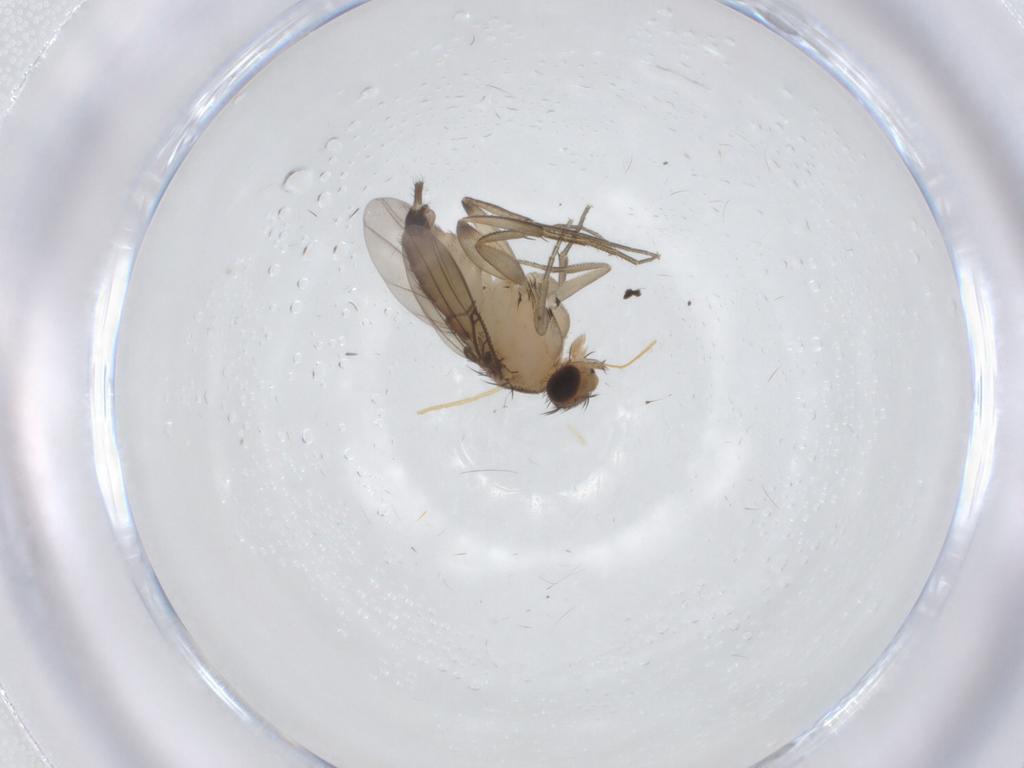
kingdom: Animalia
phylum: Arthropoda
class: Insecta
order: Diptera
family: Phoridae
